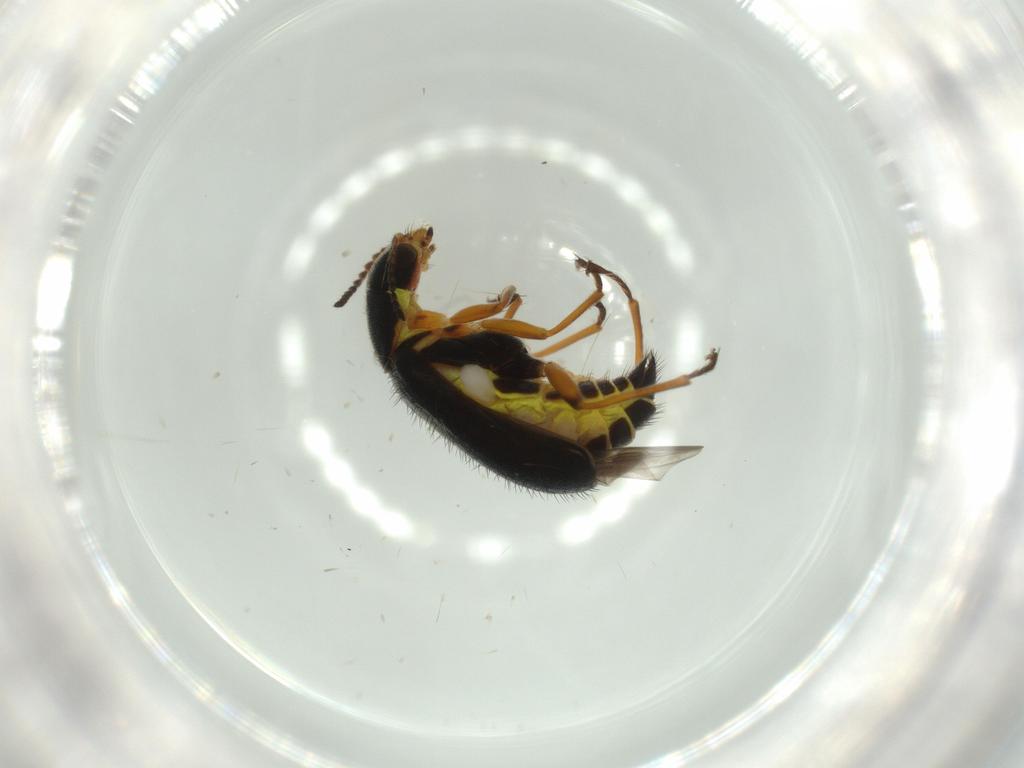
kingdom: Animalia
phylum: Arthropoda
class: Insecta
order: Coleoptera
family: Melyridae
